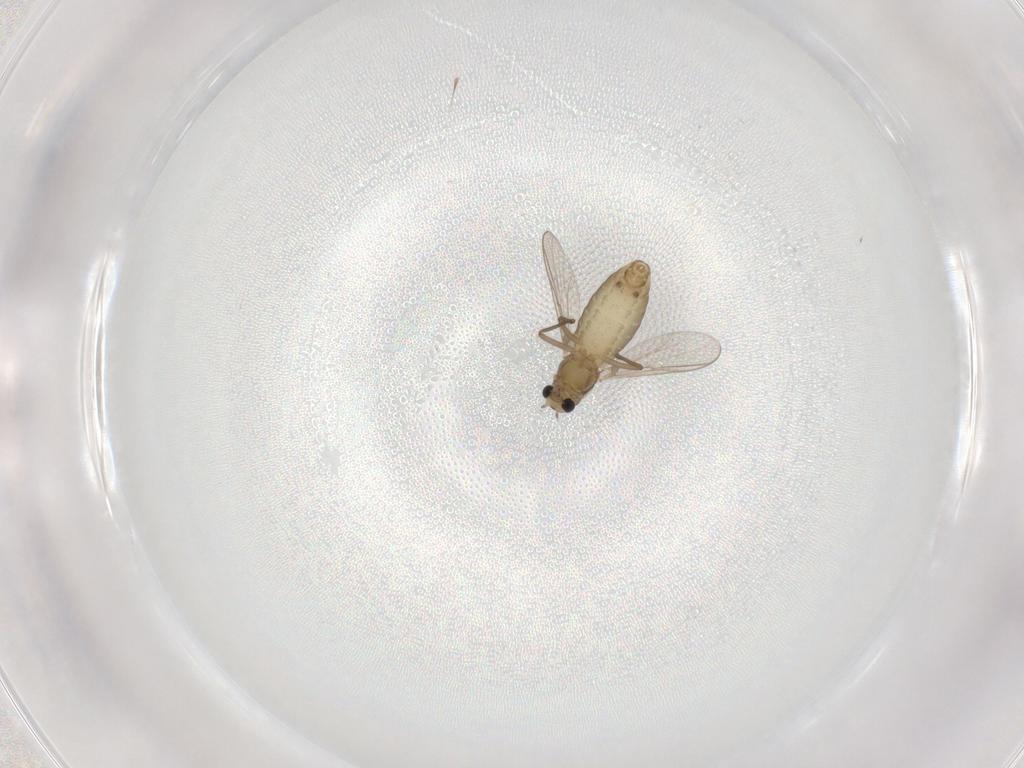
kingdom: Animalia
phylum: Arthropoda
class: Insecta
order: Diptera
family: Chironomidae
